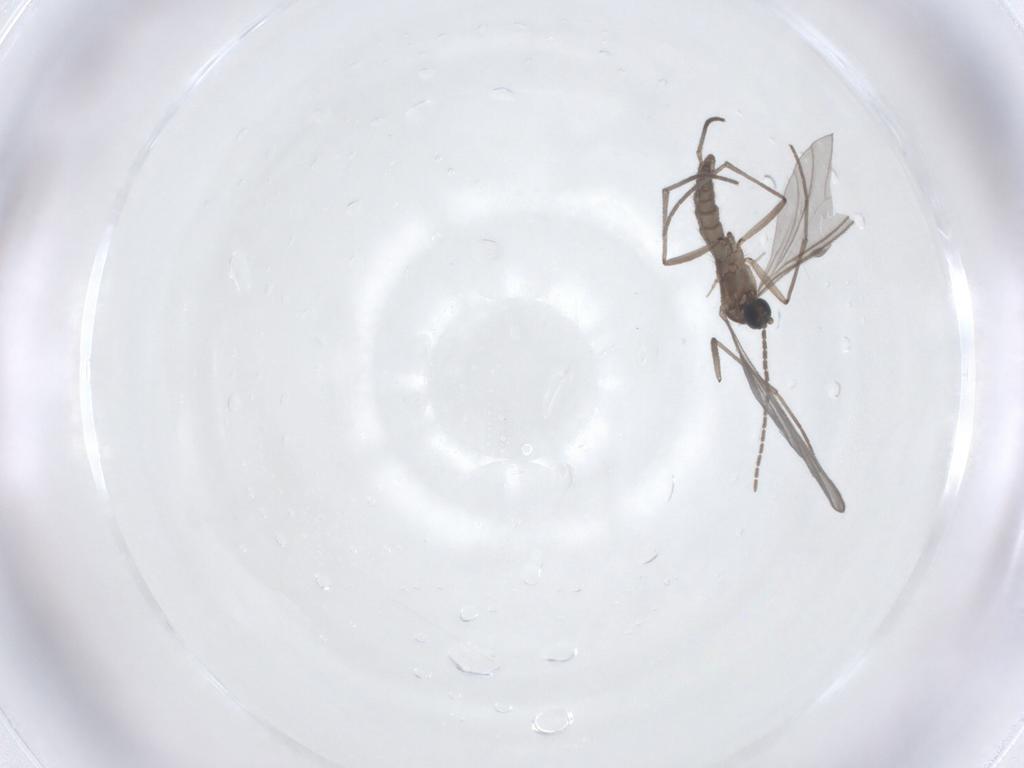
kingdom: Animalia
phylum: Arthropoda
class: Insecta
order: Diptera
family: Sciaridae
